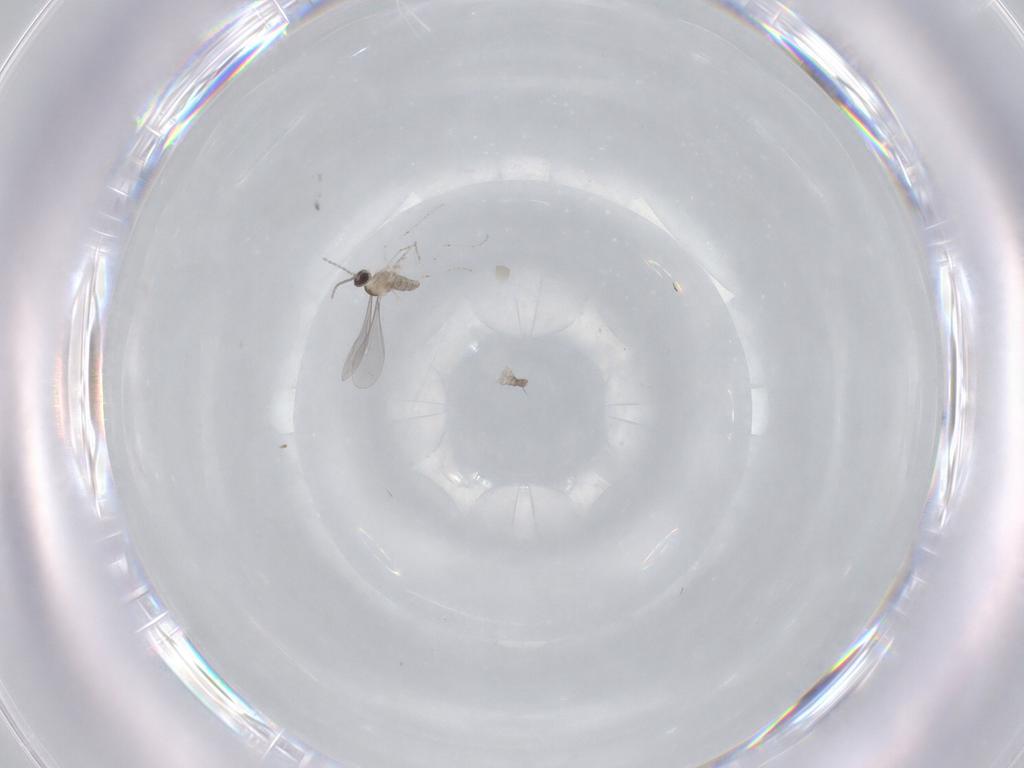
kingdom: Animalia
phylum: Arthropoda
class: Insecta
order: Diptera
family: Cecidomyiidae
